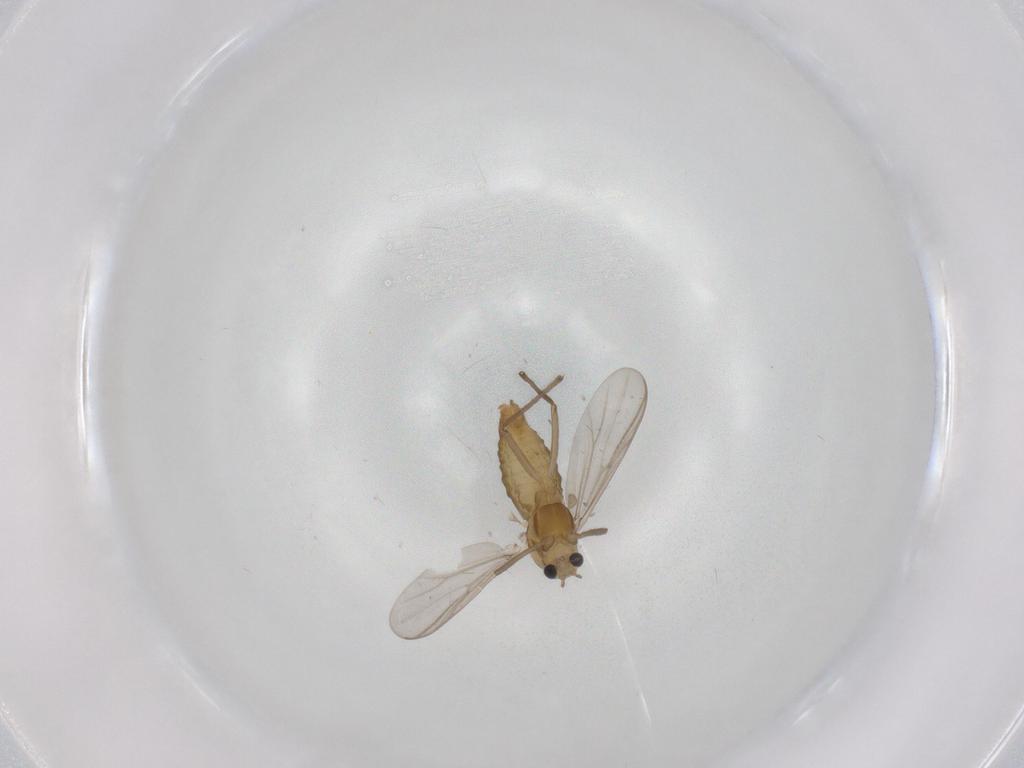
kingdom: Animalia
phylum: Arthropoda
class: Insecta
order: Diptera
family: Chironomidae
